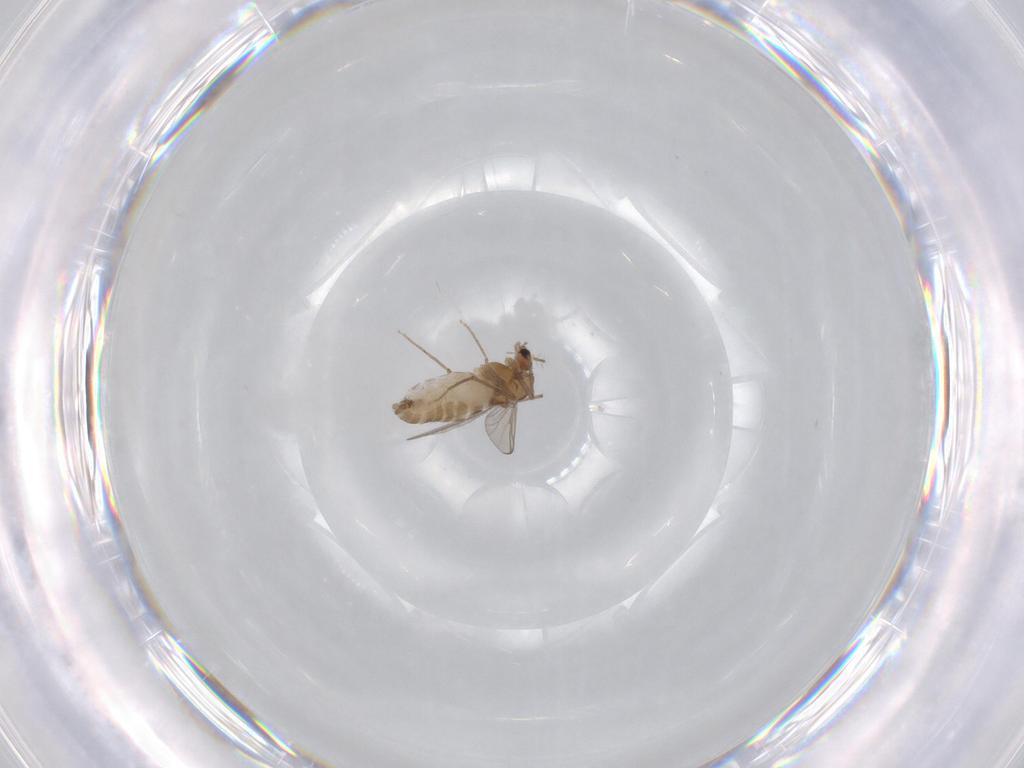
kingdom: Animalia
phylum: Arthropoda
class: Insecta
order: Diptera
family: Chironomidae
